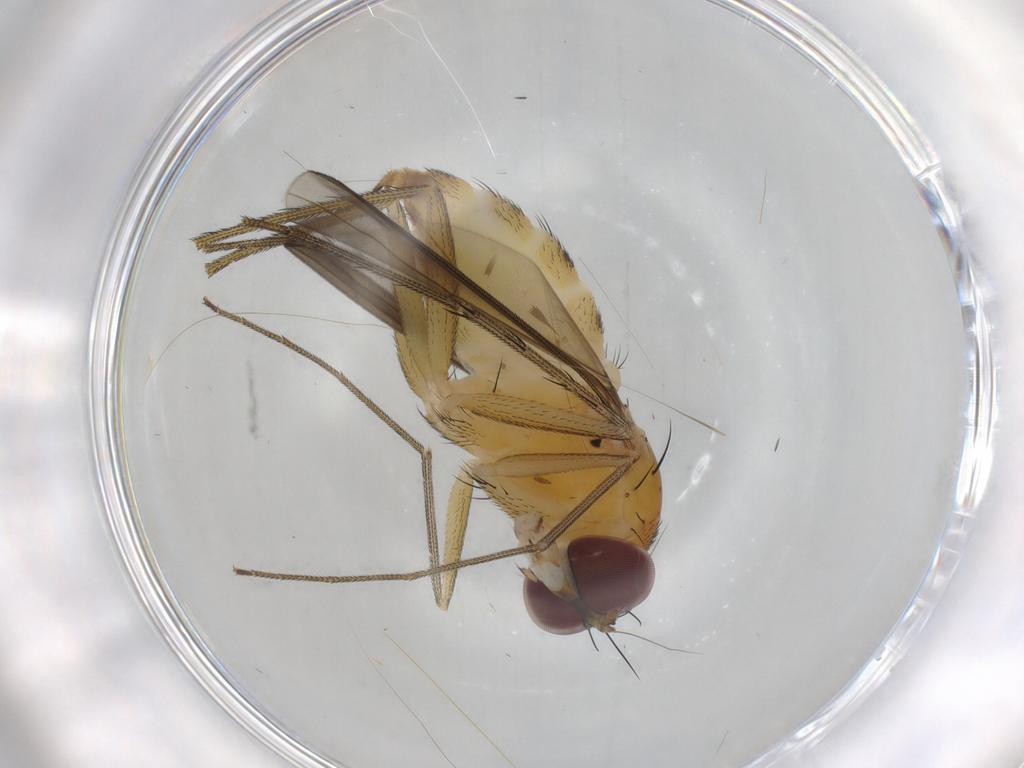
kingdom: Animalia
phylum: Arthropoda
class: Insecta
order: Diptera
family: Dolichopodidae
